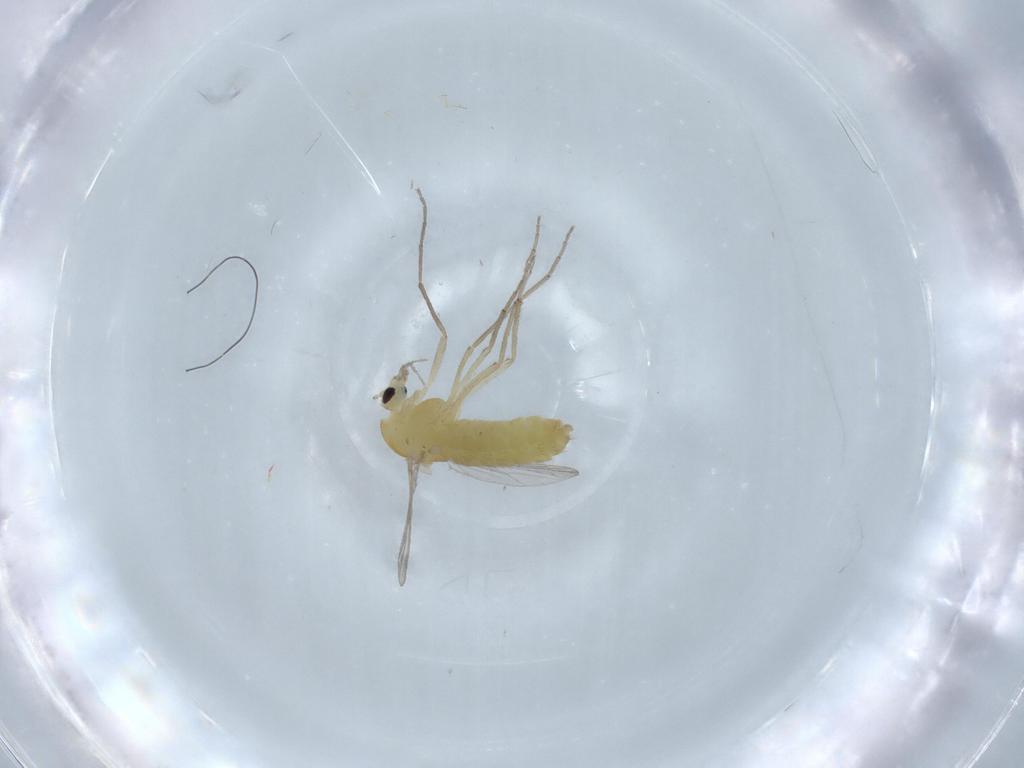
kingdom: Animalia
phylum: Arthropoda
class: Insecta
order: Diptera
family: Chironomidae
